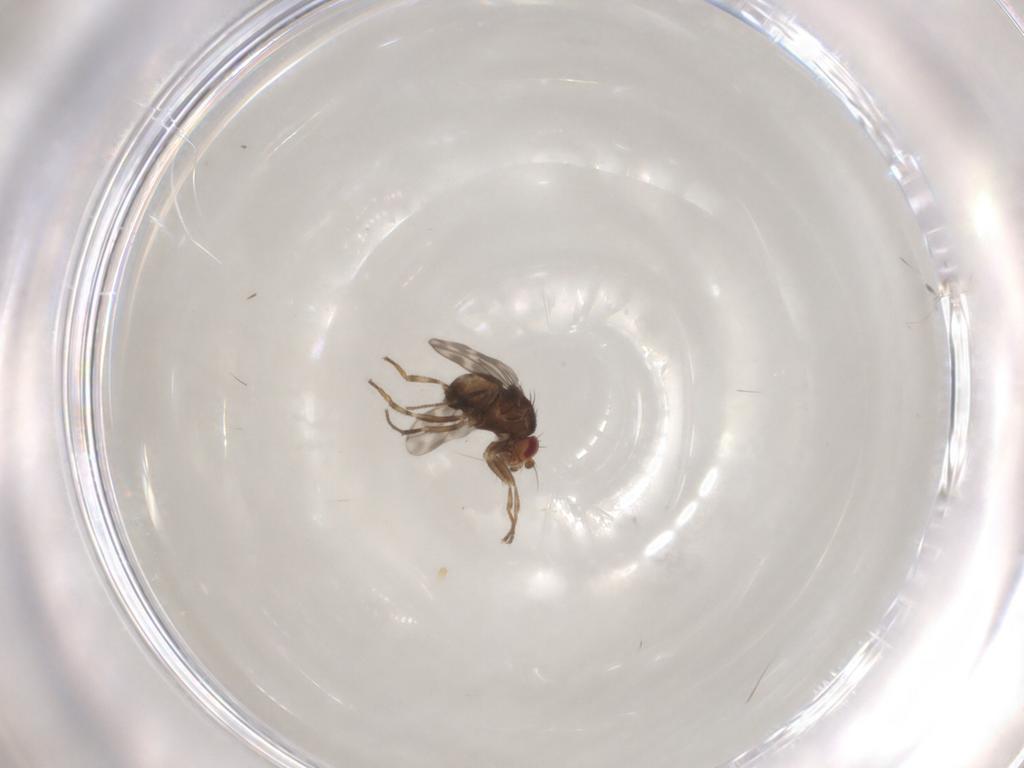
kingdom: Animalia
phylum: Arthropoda
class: Insecta
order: Diptera
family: Sphaeroceridae
